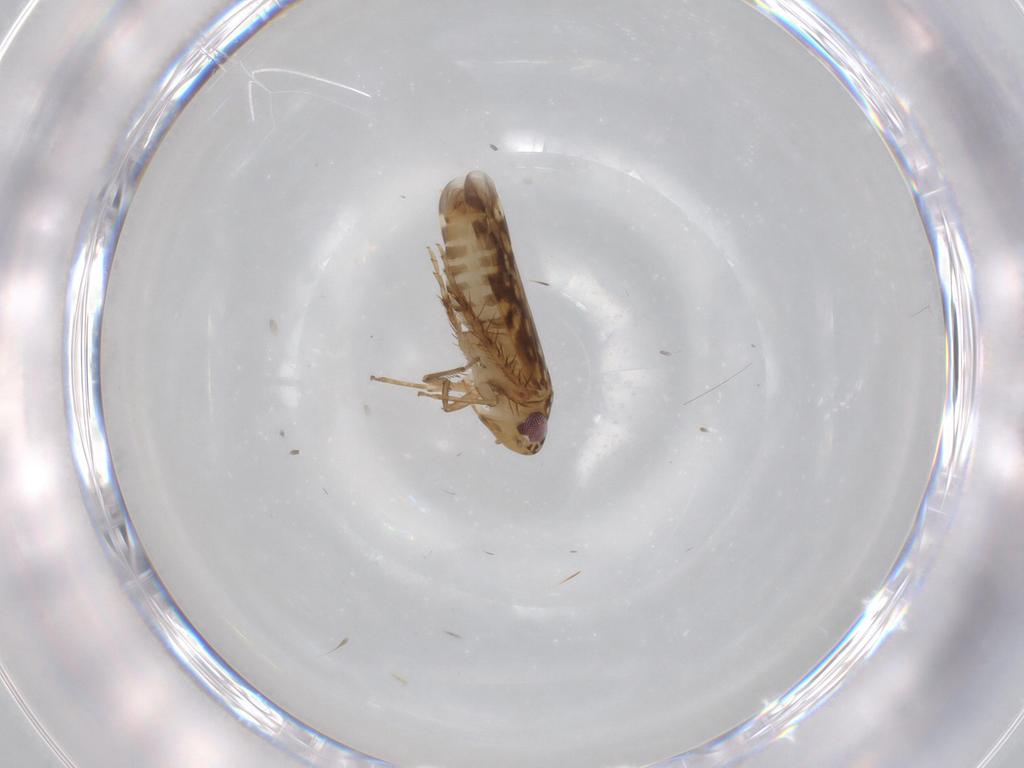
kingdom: Animalia
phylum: Arthropoda
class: Insecta
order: Hemiptera
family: Cicadellidae
